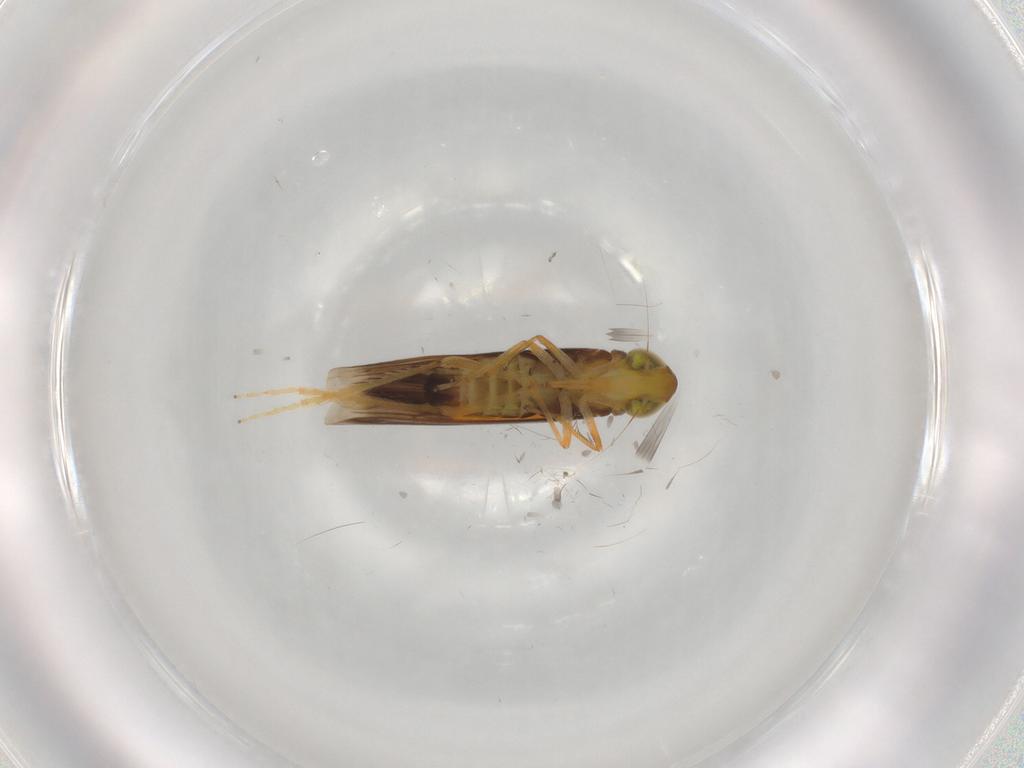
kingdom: Animalia
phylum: Arthropoda
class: Insecta
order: Hemiptera
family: Cicadellidae
